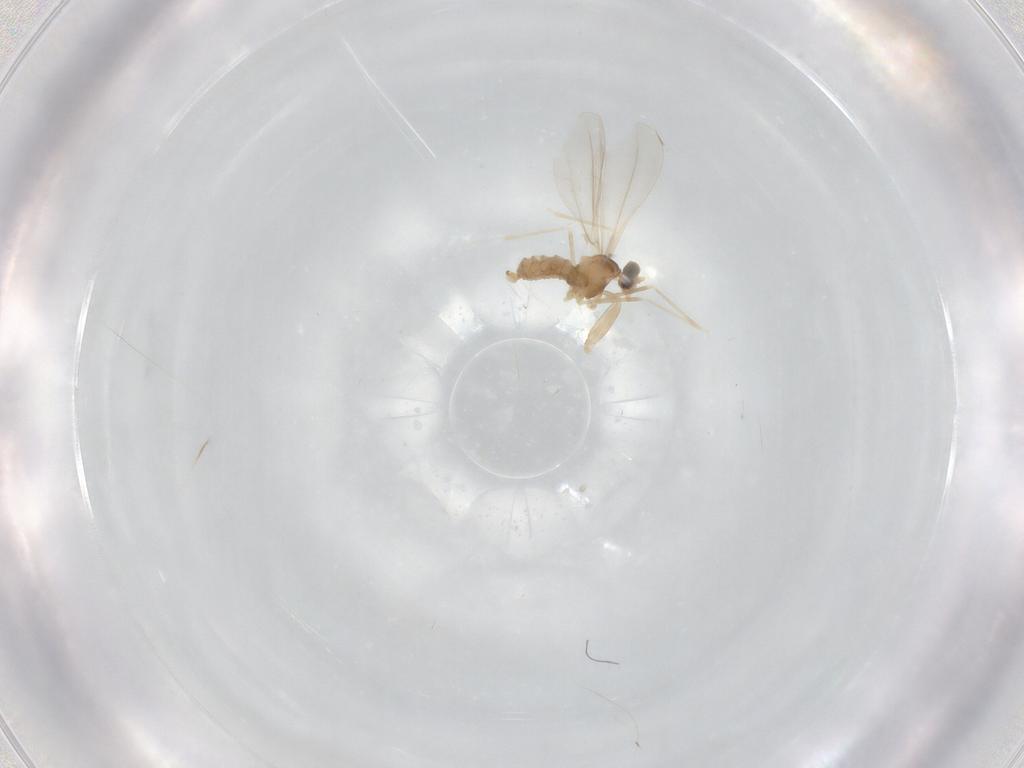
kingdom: Animalia
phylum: Arthropoda
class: Insecta
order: Diptera
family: Cecidomyiidae
